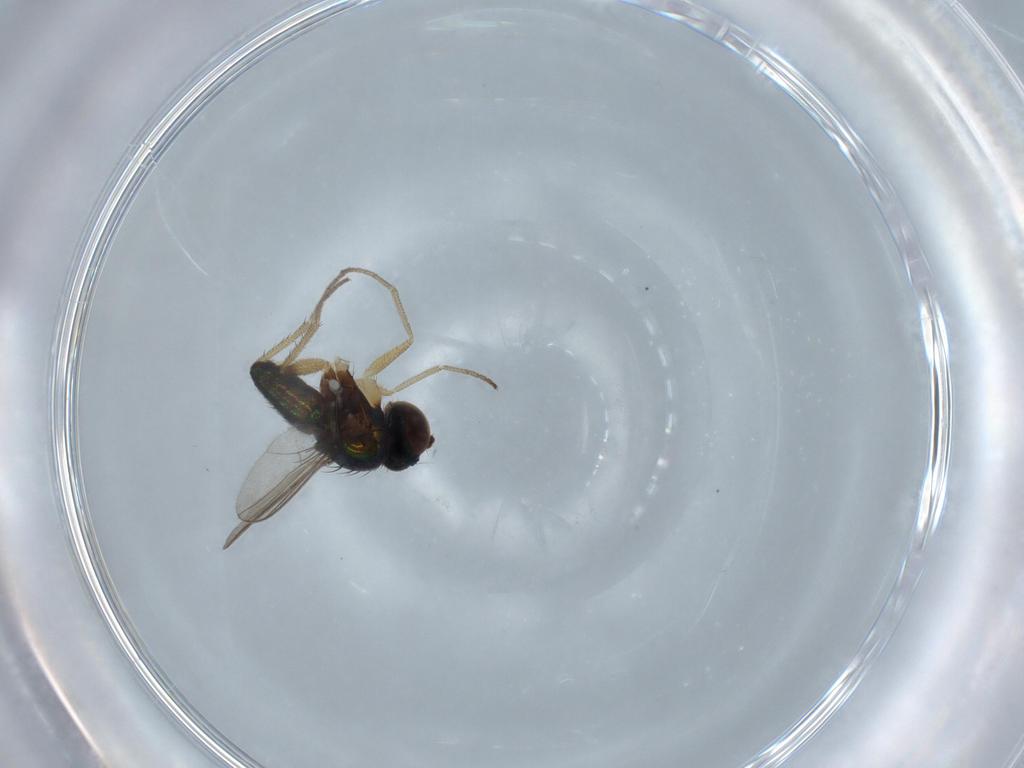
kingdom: Animalia
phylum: Arthropoda
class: Insecta
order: Diptera
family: Dolichopodidae
